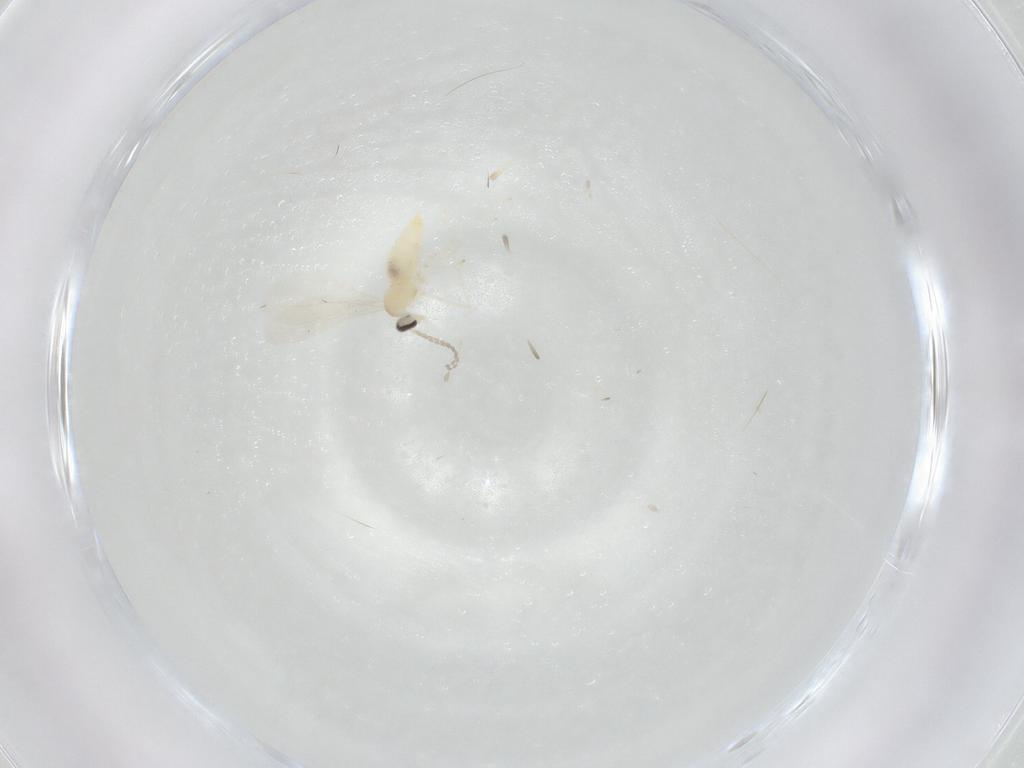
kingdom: Animalia
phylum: Arthropoda
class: Insecta
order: Diptera
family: Cecidomyiidae
